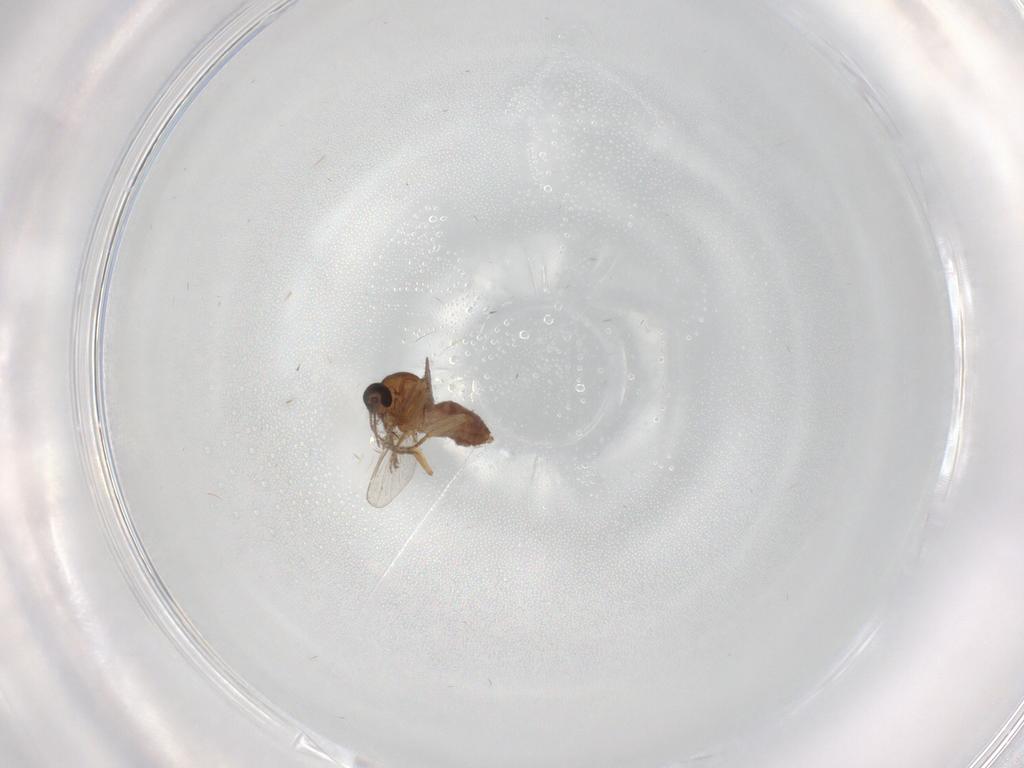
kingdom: Animalia
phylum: Arthropoda
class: Insecta
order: Diptera
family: Ceratopogonidae
